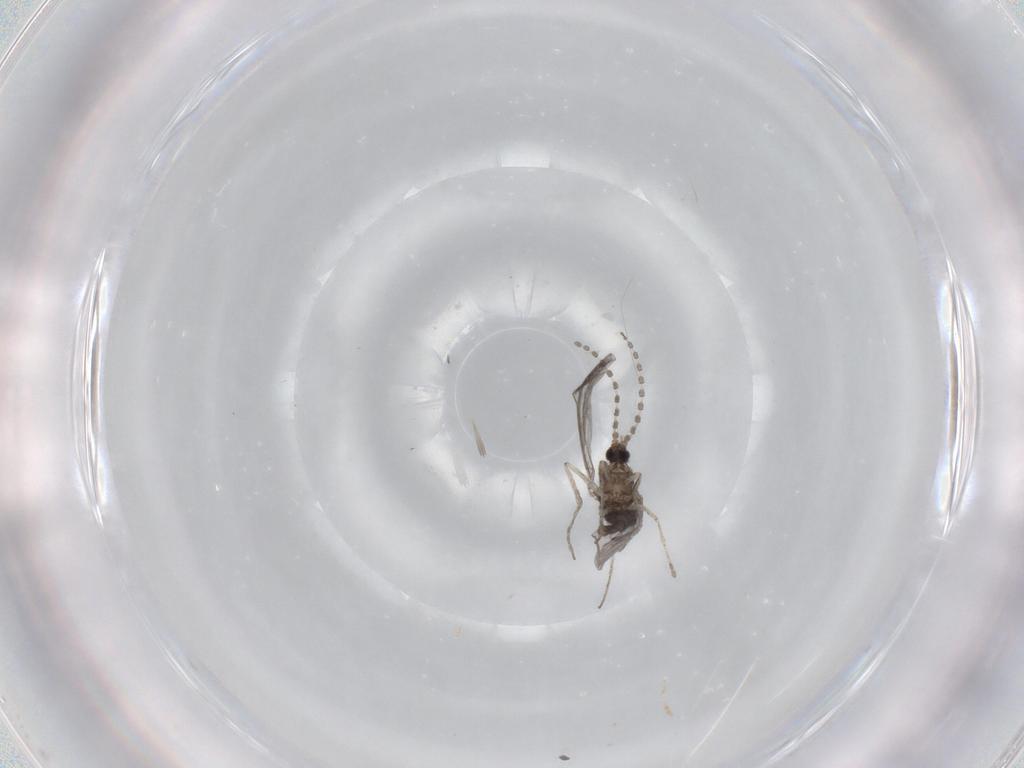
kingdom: Animalia
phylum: Arthropoda
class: Insecta
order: Diptera
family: Cecidomyiidae
